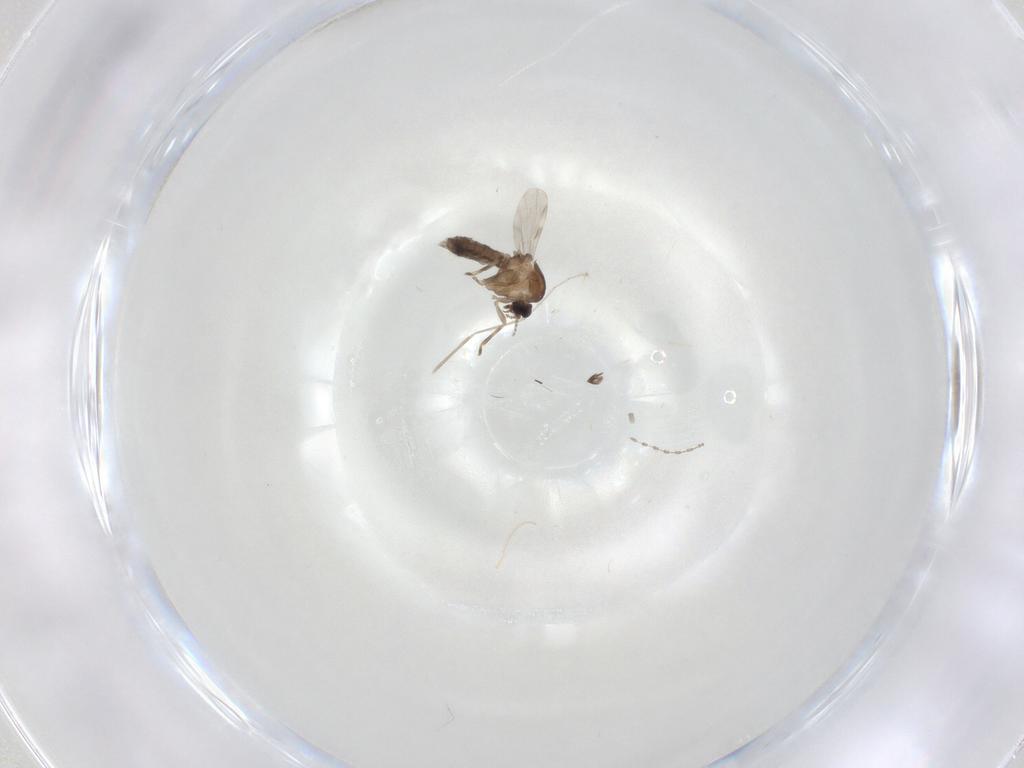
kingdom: Animalia
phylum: Arthropoda
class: Insecta
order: Diptera
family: Ceratopogonidae
